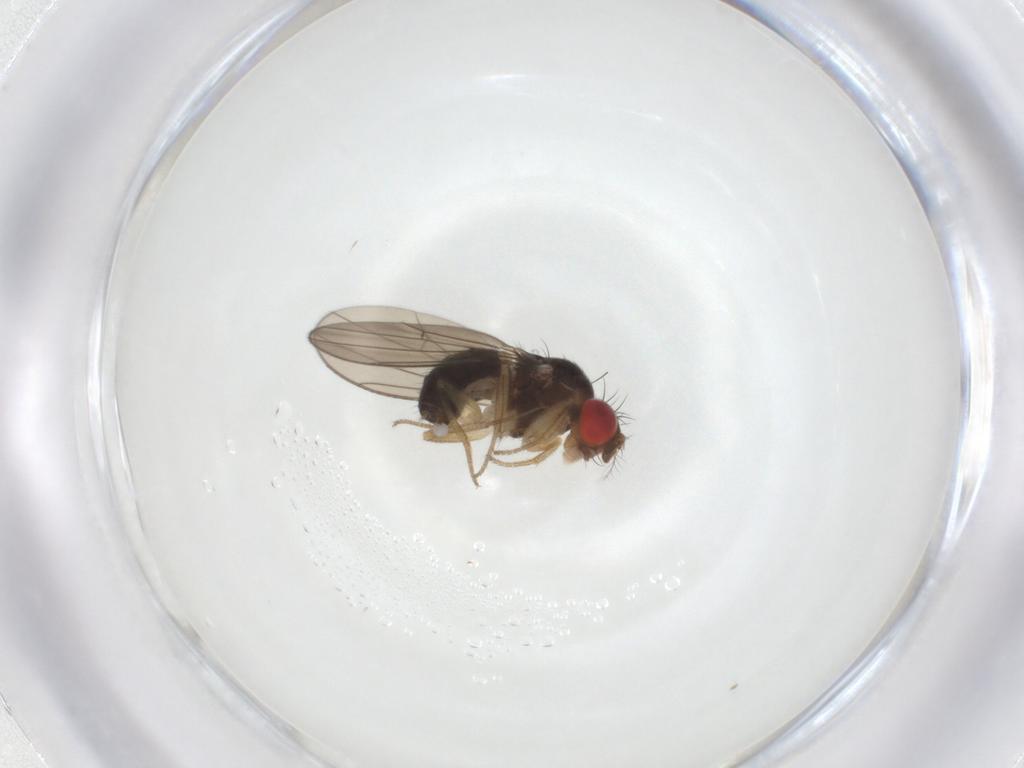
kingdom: Animalia
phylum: Arthropoda
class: Insecta
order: Diptera
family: Drosophilidae
